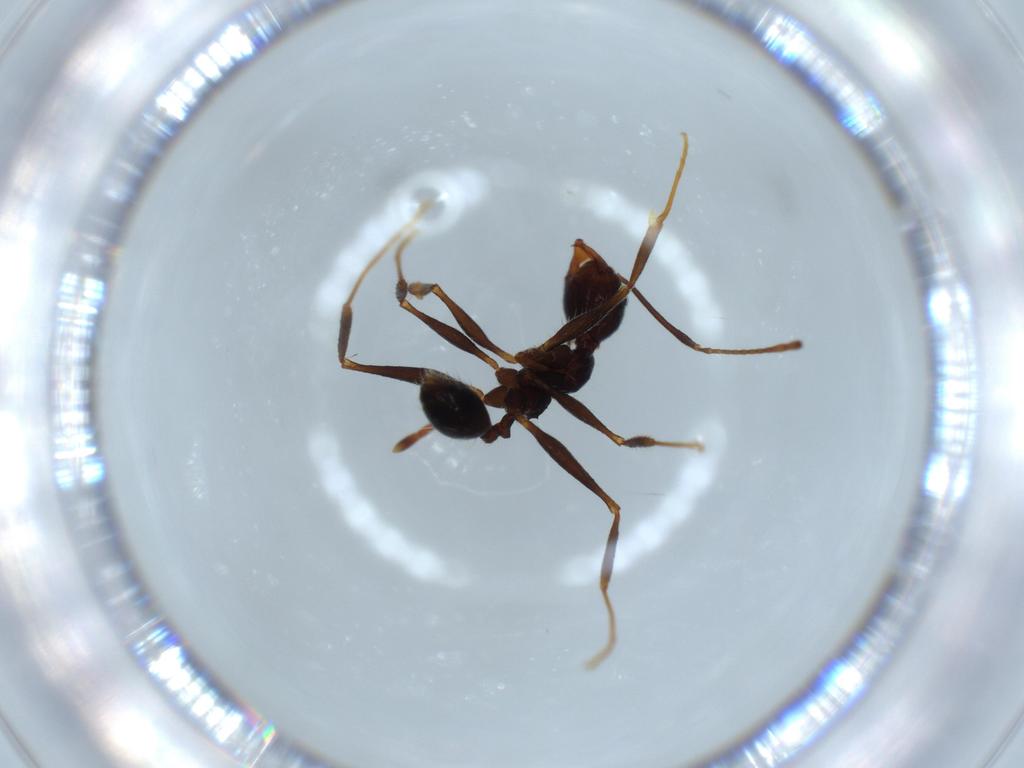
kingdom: Animalia
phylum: Arthropoda
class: Insecta
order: Hymenoptera
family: Formicidae
